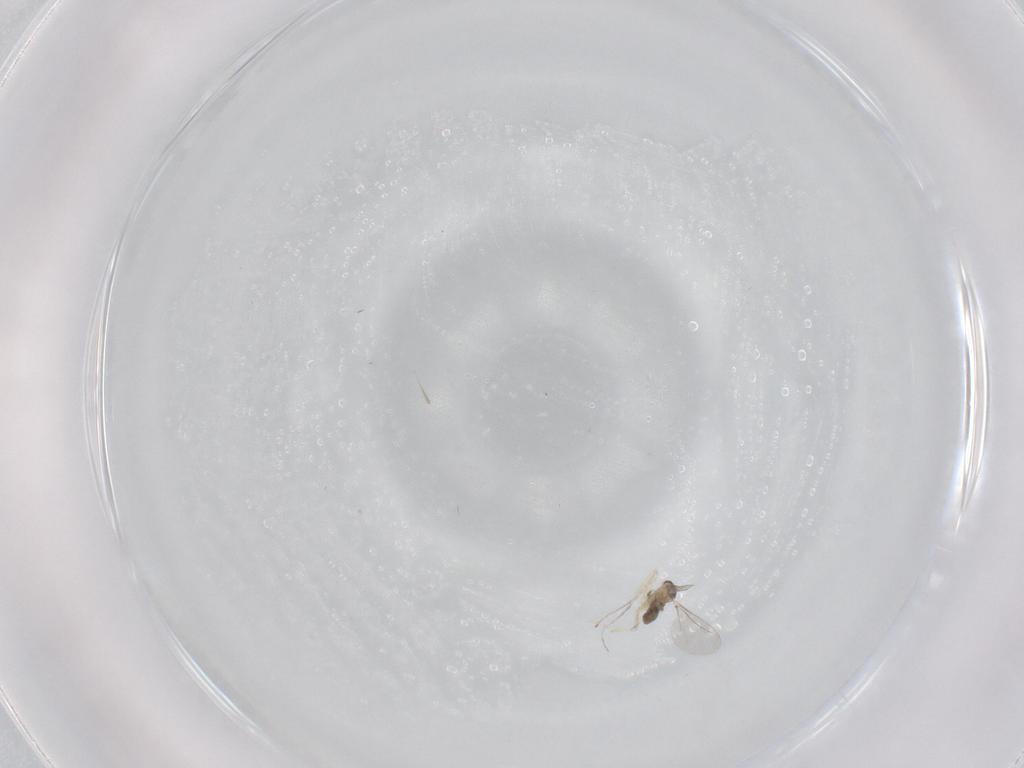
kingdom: Animalia
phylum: Arthropoda
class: Insecta
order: Diptera
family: Cecidomyiidae
